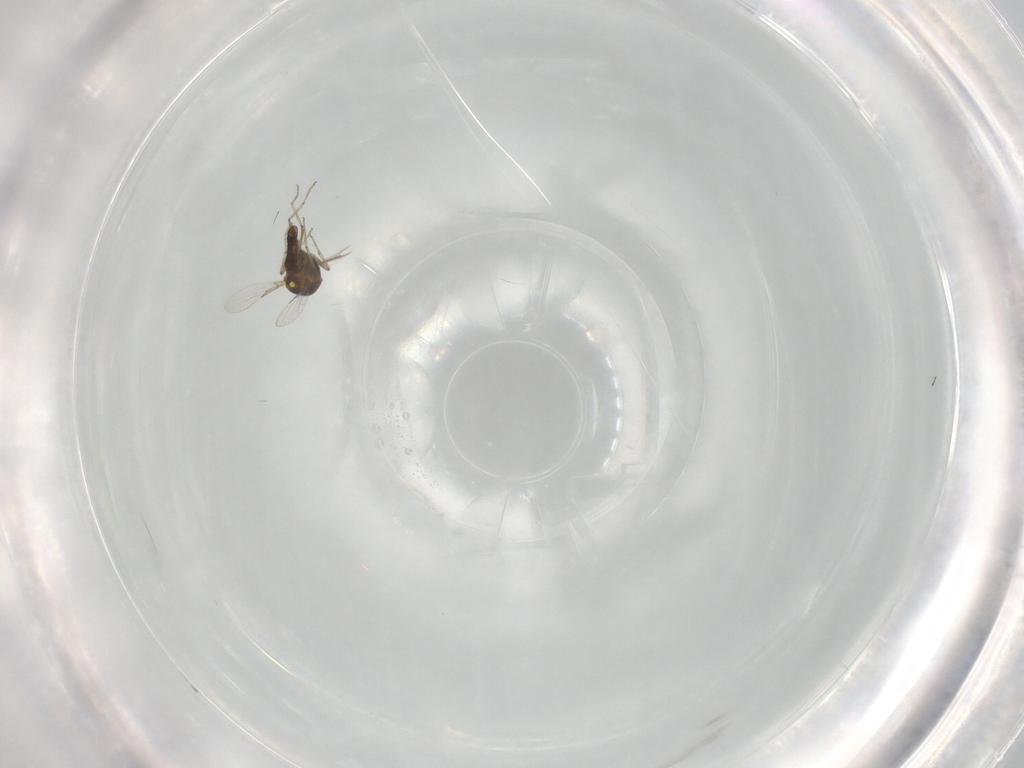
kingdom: Animalia
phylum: Arthropoda
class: Insecta
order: Diptera
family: Ceratopogonidae
